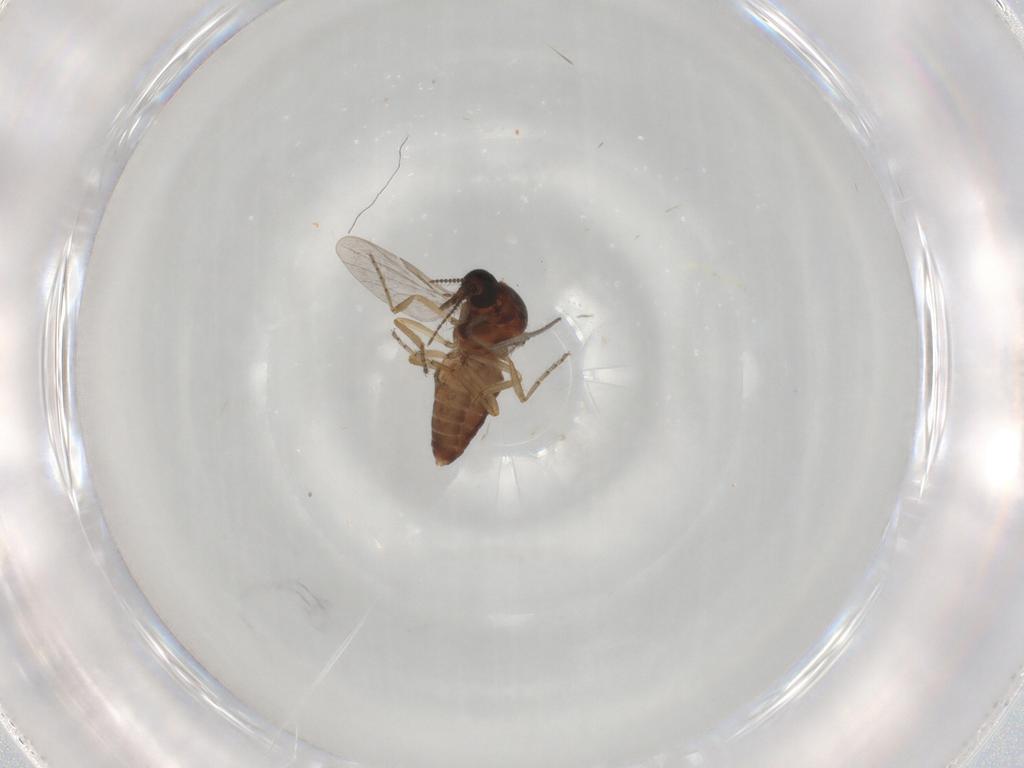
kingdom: Animalia
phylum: Arthropoda
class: Insecta
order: Diptera
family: Ceratopogonidae
